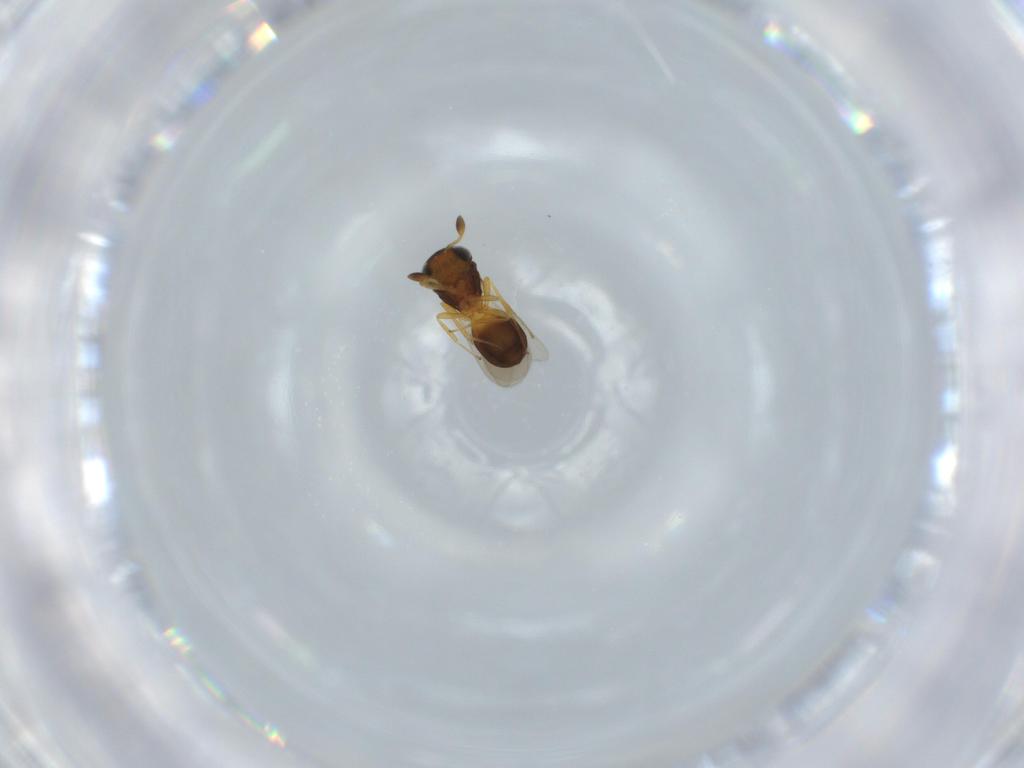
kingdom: Animalia
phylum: Arthropoda
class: Insecta
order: Hymenoptera
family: Scelionidae
